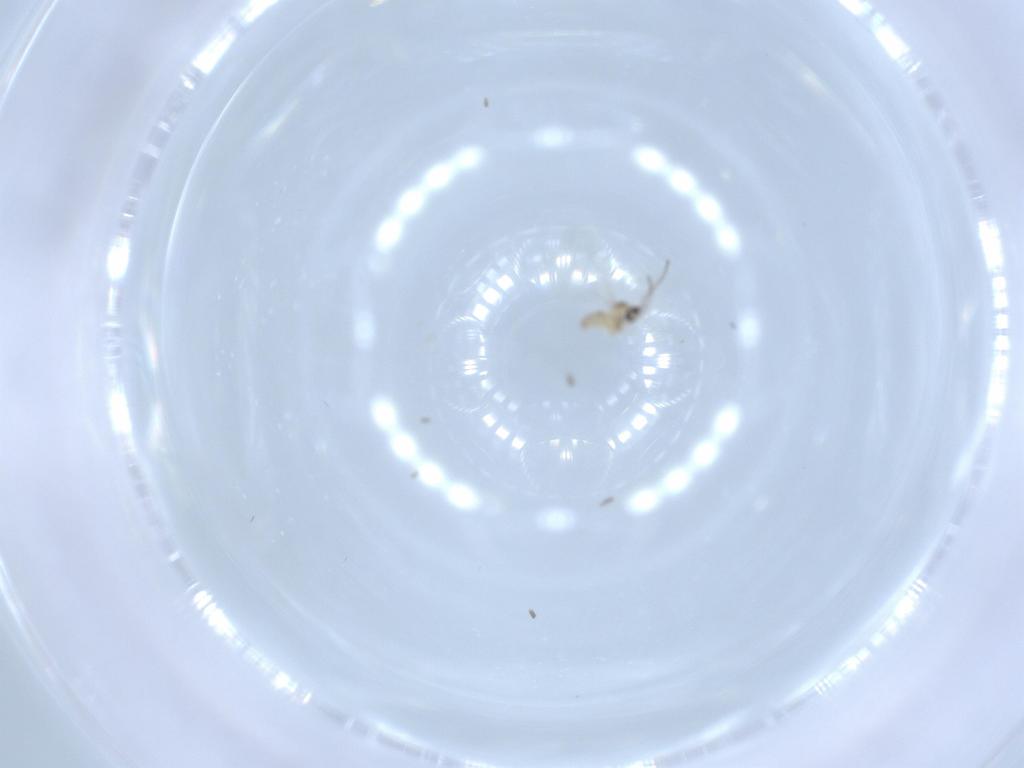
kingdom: Animalia
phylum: Arthropoda
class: Insecta
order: Diptera
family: Cecidomyiidae
